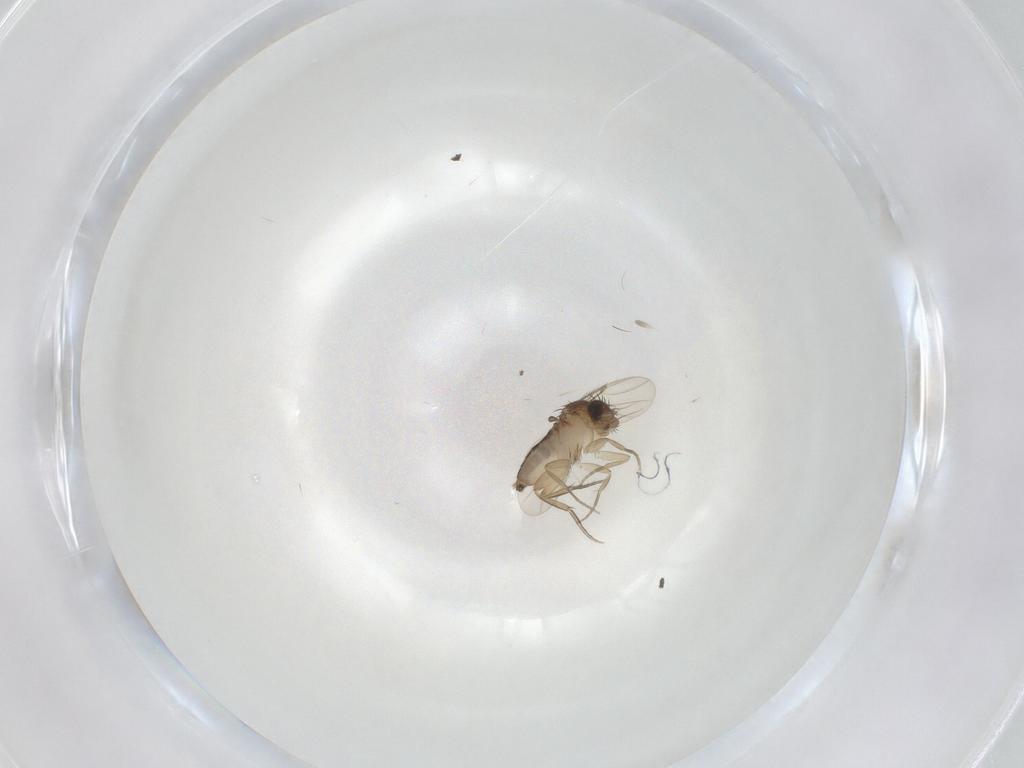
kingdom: Animalia
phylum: Arthropoda
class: Insecta
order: Diptera
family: Phoridae
